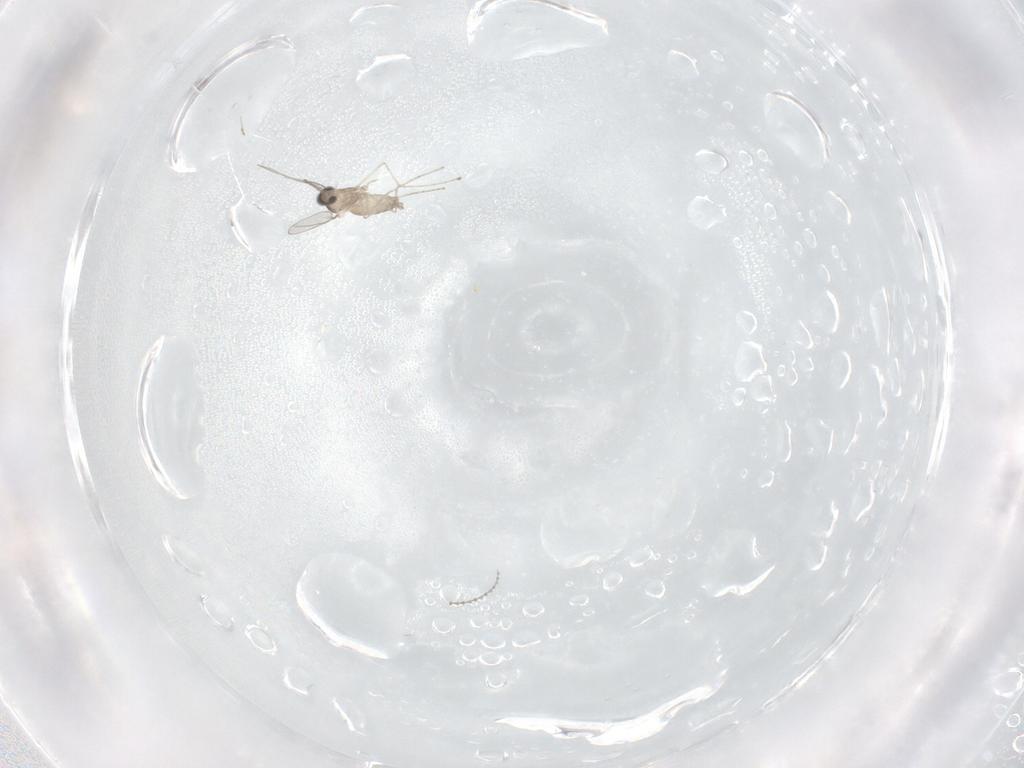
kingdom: Animalia
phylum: Arthropoda
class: Insecta
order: Diptera
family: Cecidomyiidae
